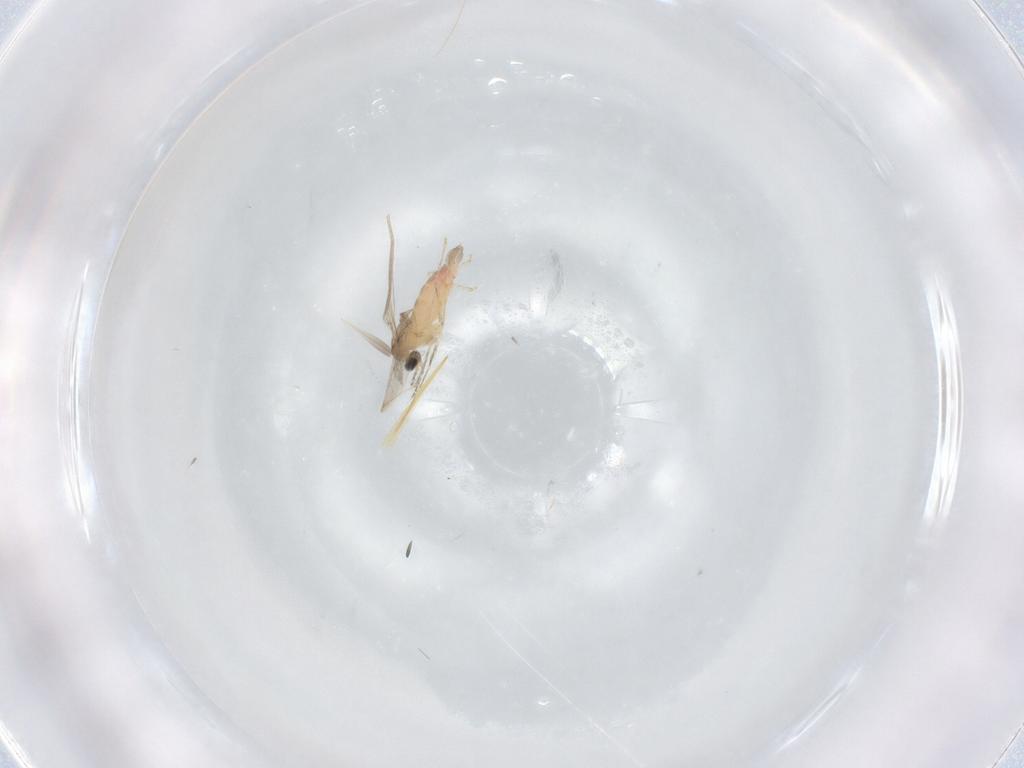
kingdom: Animalia
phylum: Arthropoda
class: Insecta
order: Diptera
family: Cecidomyiidae
